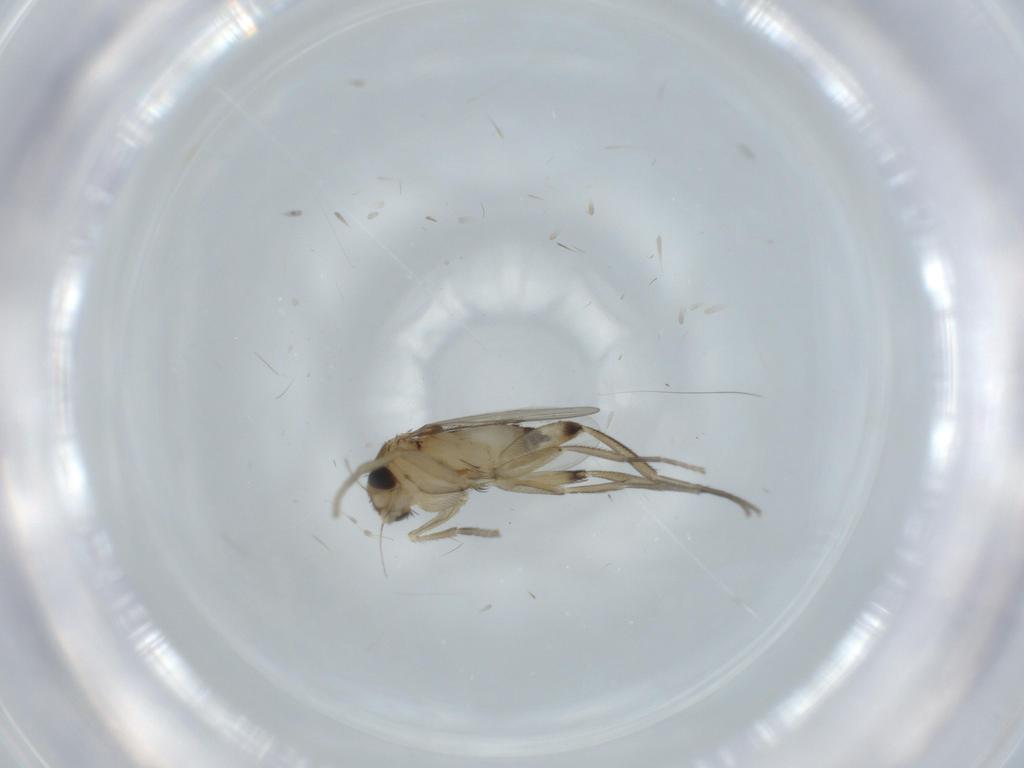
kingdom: Animalia
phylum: Arthropoda
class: Insecta
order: Diptera
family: Phoridae
